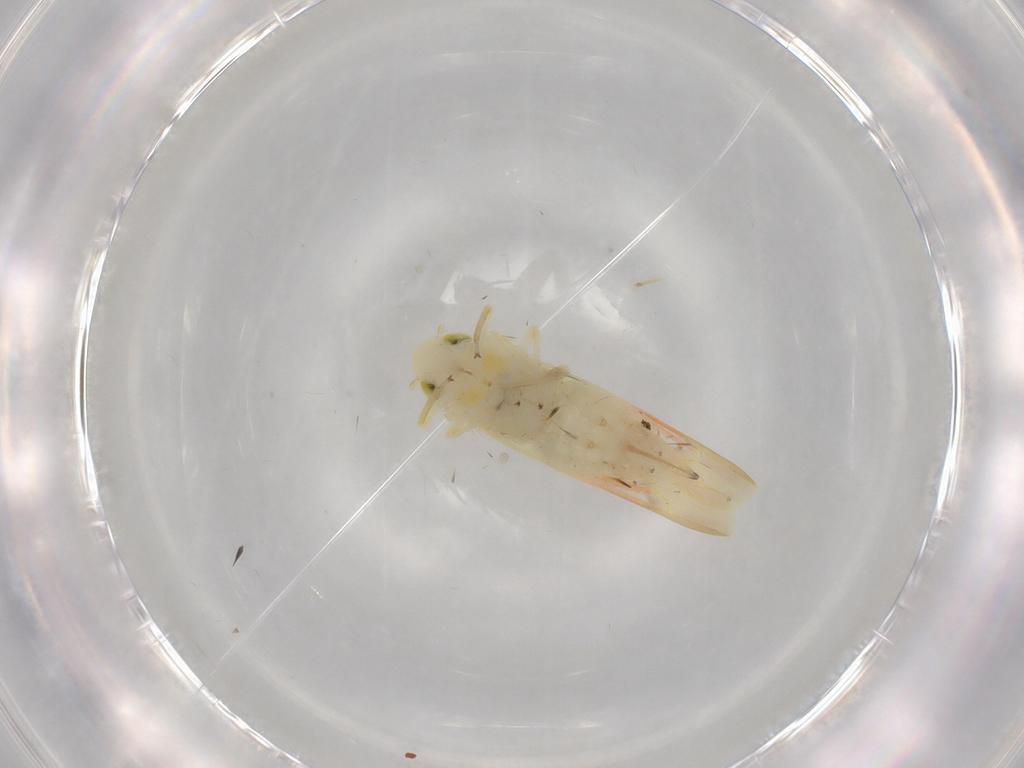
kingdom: Animalia
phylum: Arthropoda
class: Insecta
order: Hemiptera
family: Cicadellidae
